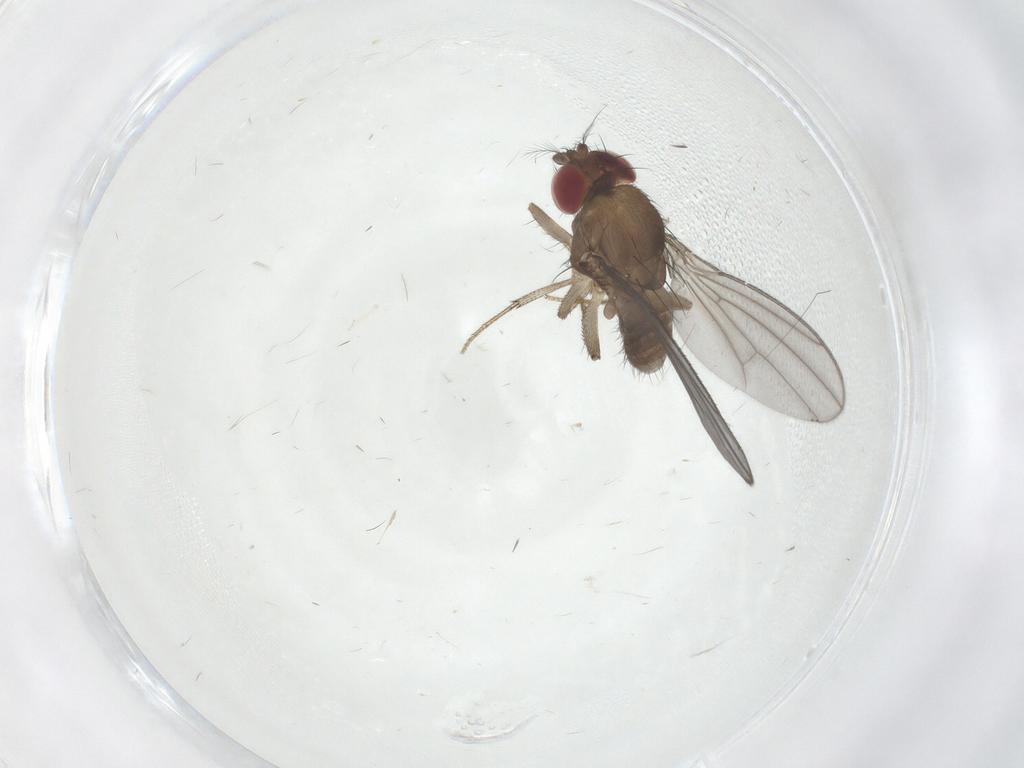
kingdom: Animalia
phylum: Arthropoda
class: Insecta
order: Diptera
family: Drosophilidae
